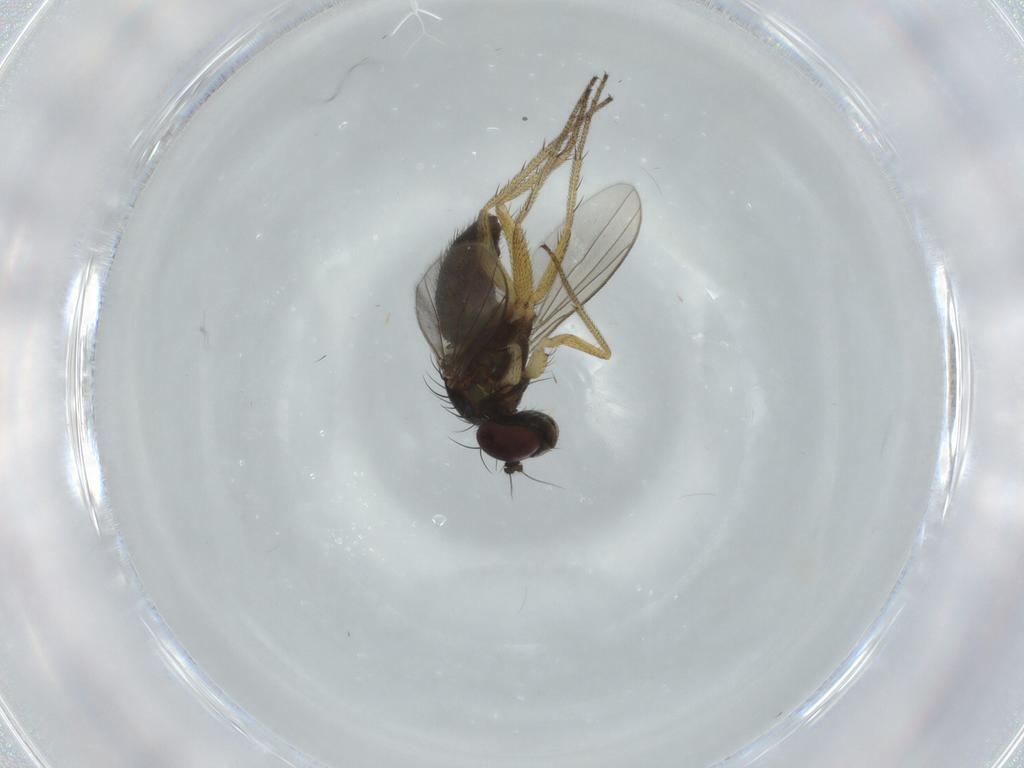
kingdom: Animalia
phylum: Arthropoda
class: Insecta
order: Diptera
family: Dolichopodidae
